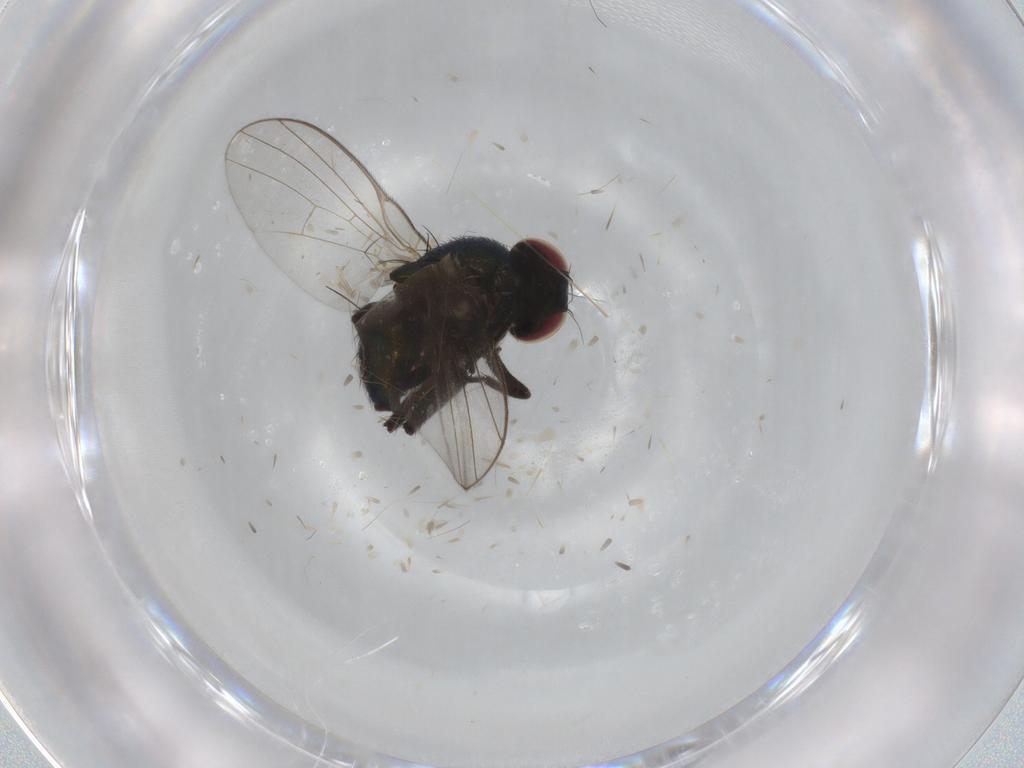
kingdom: Animalia
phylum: Arthropoda
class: Insecta
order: Diptera
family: Agromyzidae
